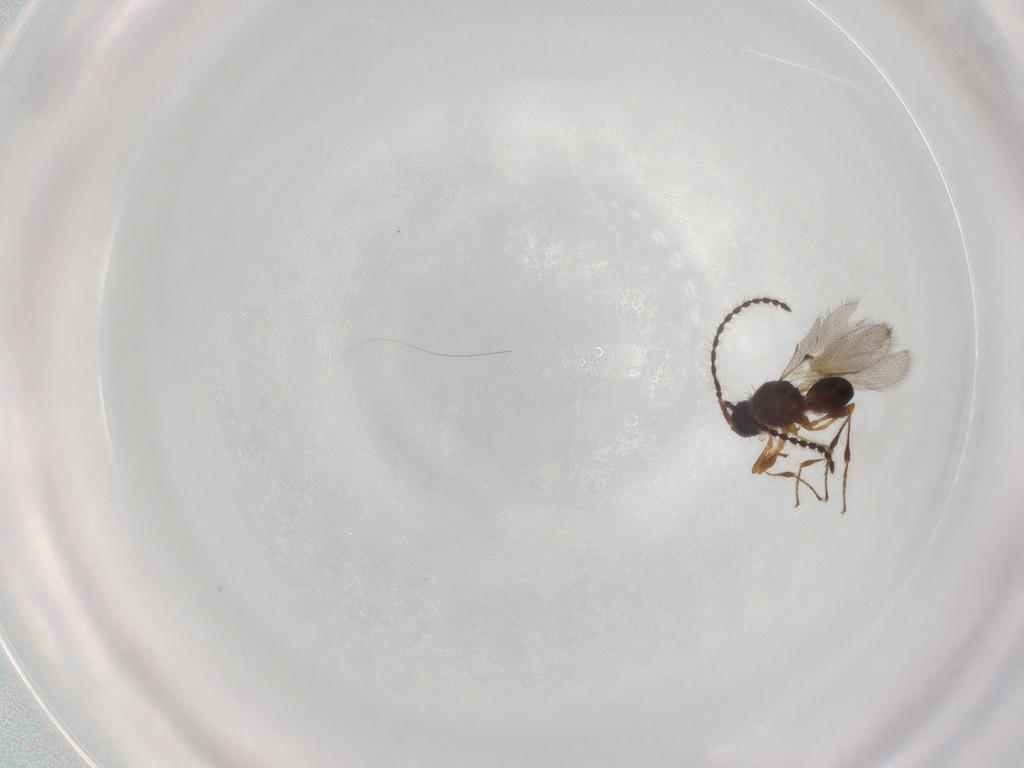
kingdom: Animalia
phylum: Arthropoda
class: Insecta
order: Hymenoptera
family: Diapriidae
